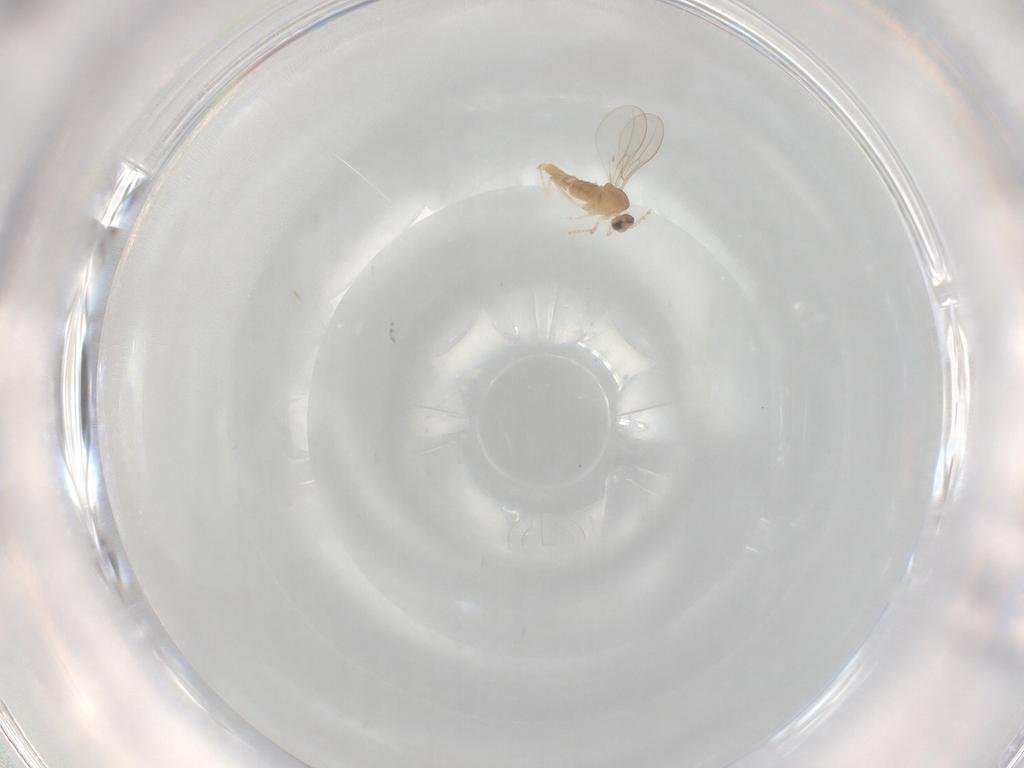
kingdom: Animalia
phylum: Arthropoda
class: Insecta
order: Diptera
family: Cecidomyiidae
